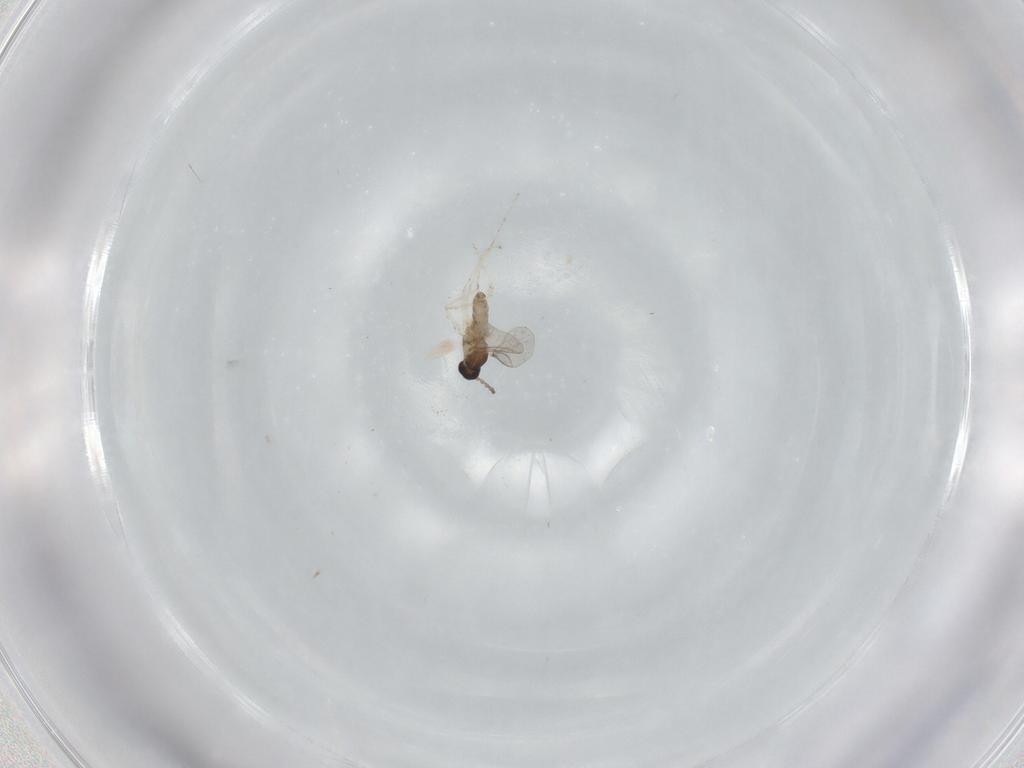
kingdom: Animalia
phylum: Arthropoda
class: Insecta
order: Diptera
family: Cecidomyiidae
